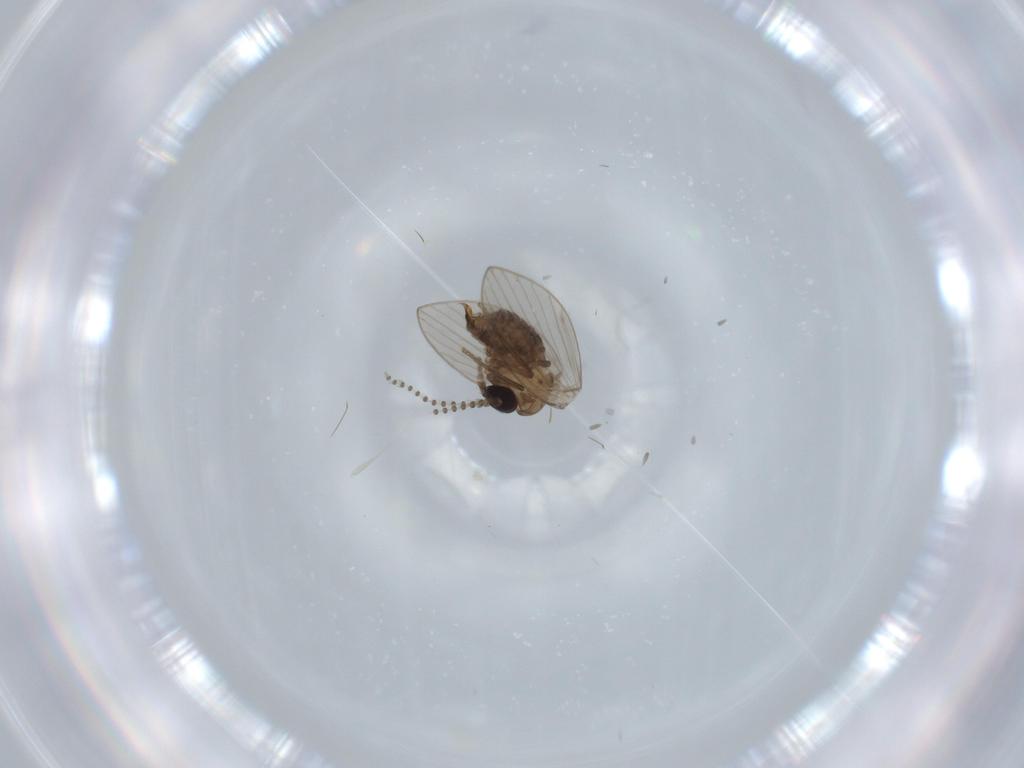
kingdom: Animalia
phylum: Arthropoda
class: Insecta
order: Diptera
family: Psychodidae
